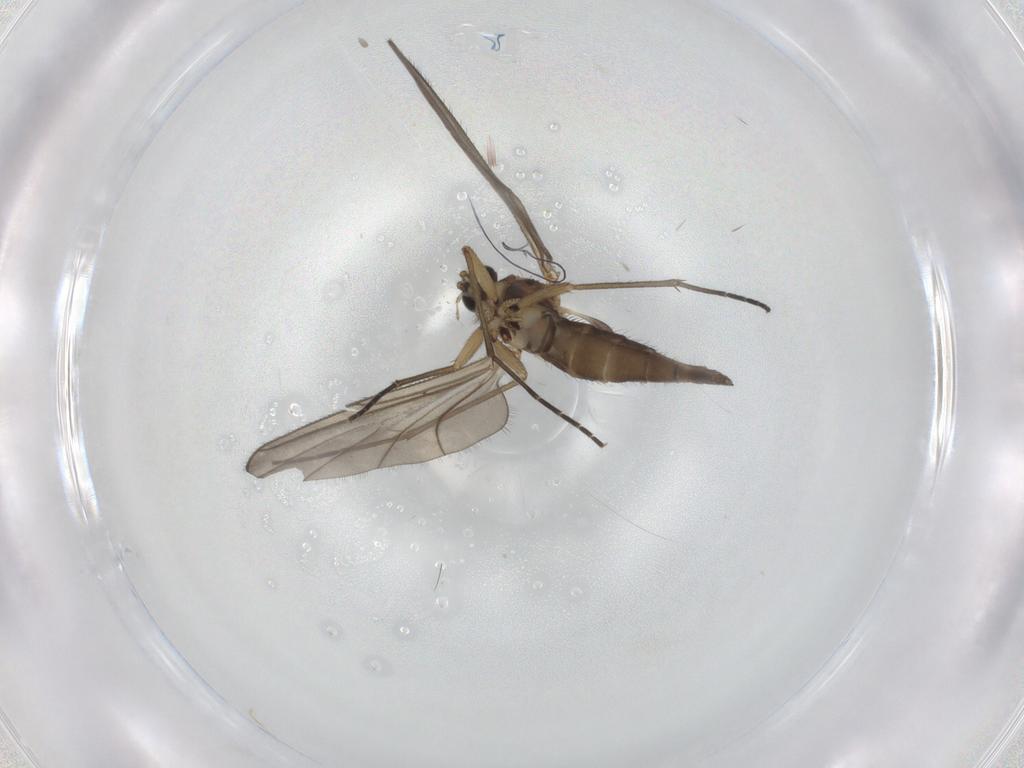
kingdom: Animalia
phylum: Arthropoda
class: Insecta
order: Diptera
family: Sciaridae
